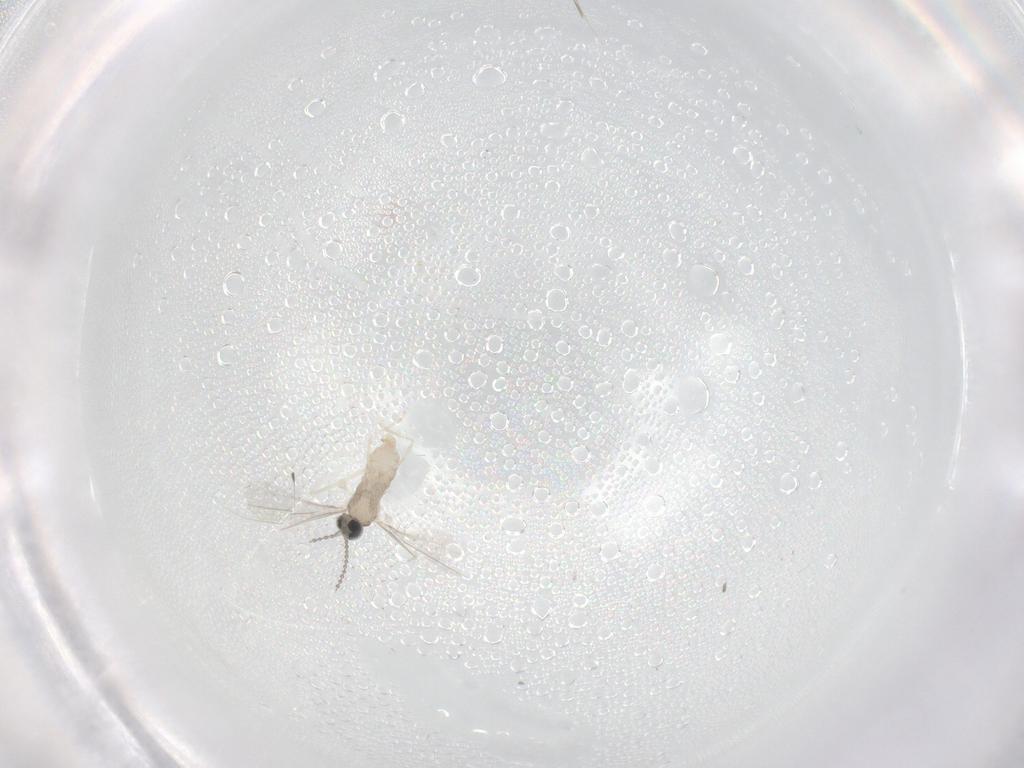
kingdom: Animalia
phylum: Arthropoda
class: Insecta
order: Diptera
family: Cecidomyiidae
